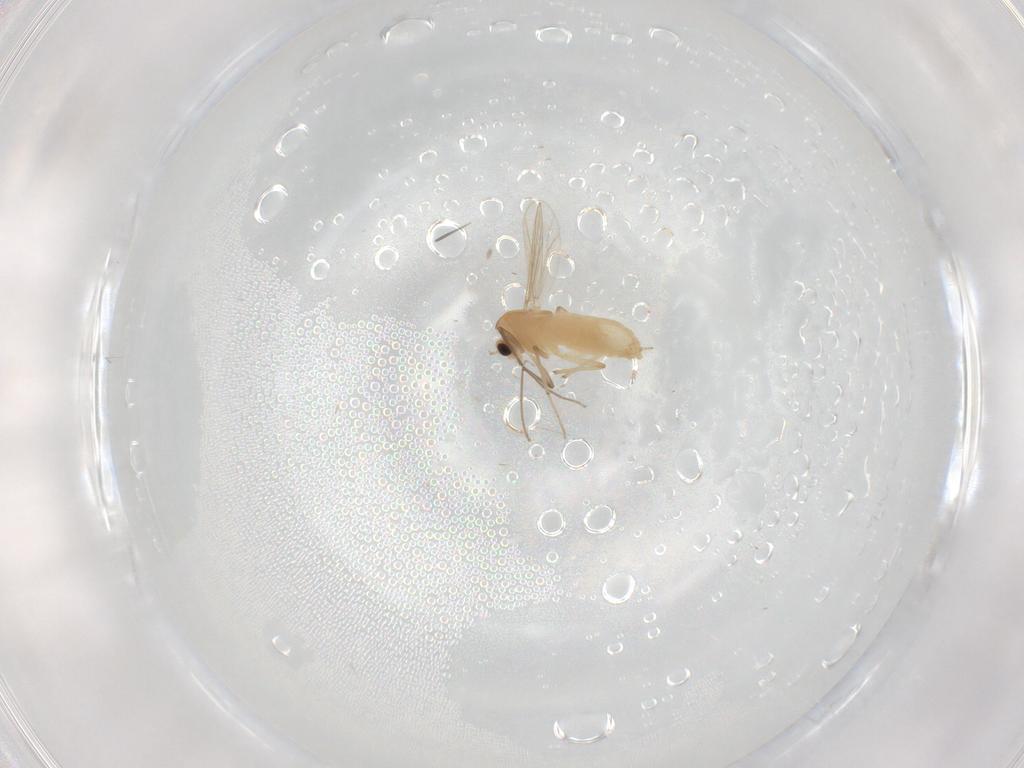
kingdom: Animalia
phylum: Arthropoda
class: Insecta
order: Diptera
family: Chironomidae
